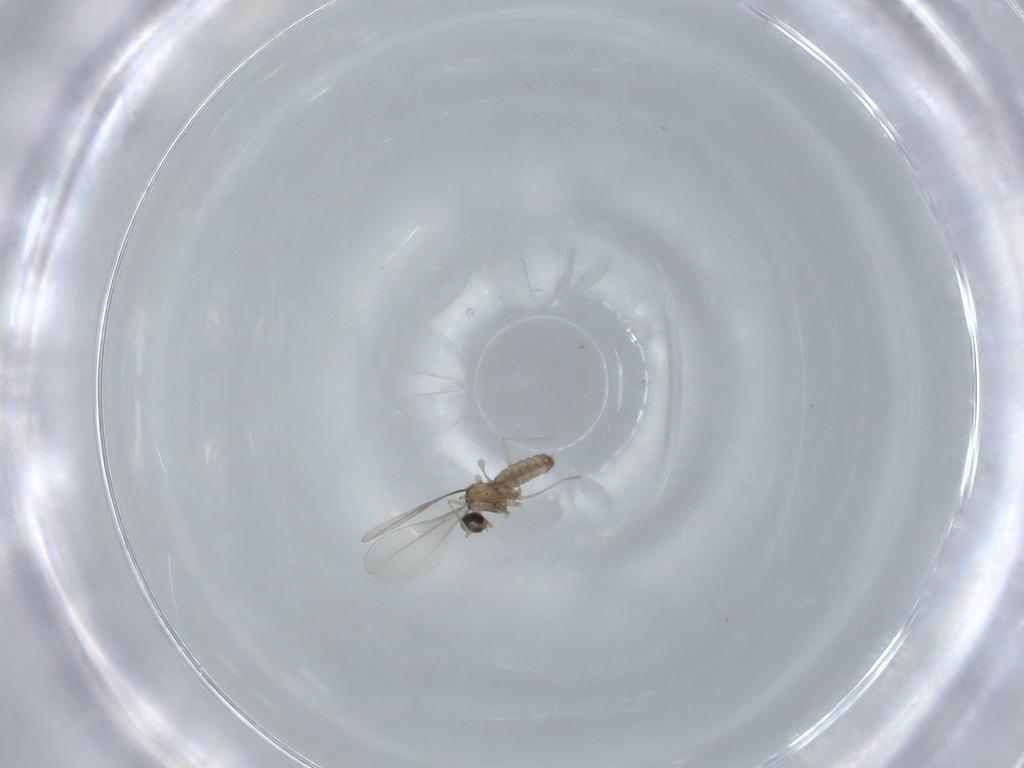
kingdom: Animalia
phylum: Arthropoda
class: Insecta
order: Diptera
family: Cecidomyiidae
